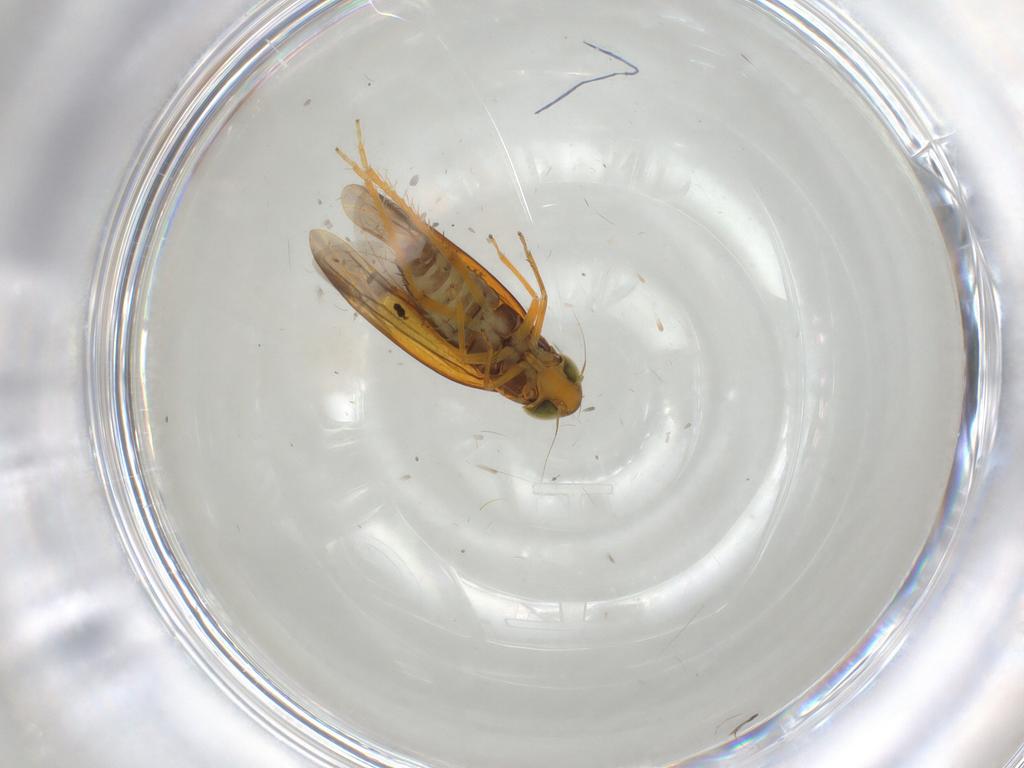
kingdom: Animalia
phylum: Arthropoda
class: Insecta
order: Hemiptera
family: Cicadellidae
